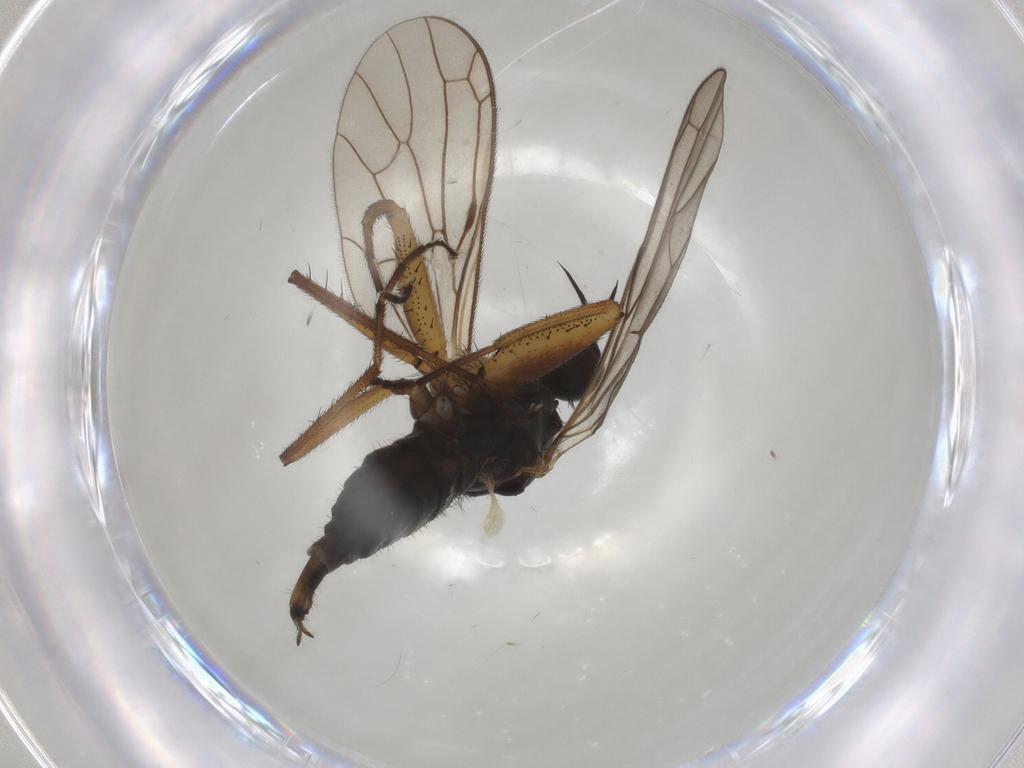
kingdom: Animalia
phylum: Arthropoda
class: Insecta
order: Diptera
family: Empididae
